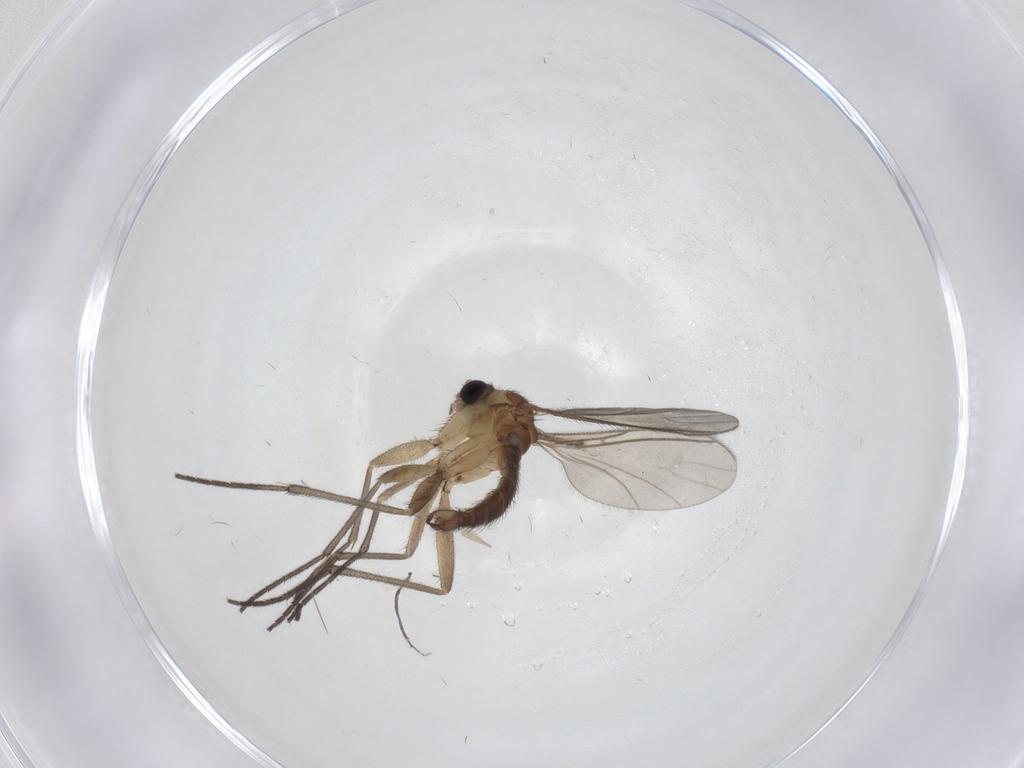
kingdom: Animalia
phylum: Arthropoda
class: Insecta
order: Diptera
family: Sciaridae
